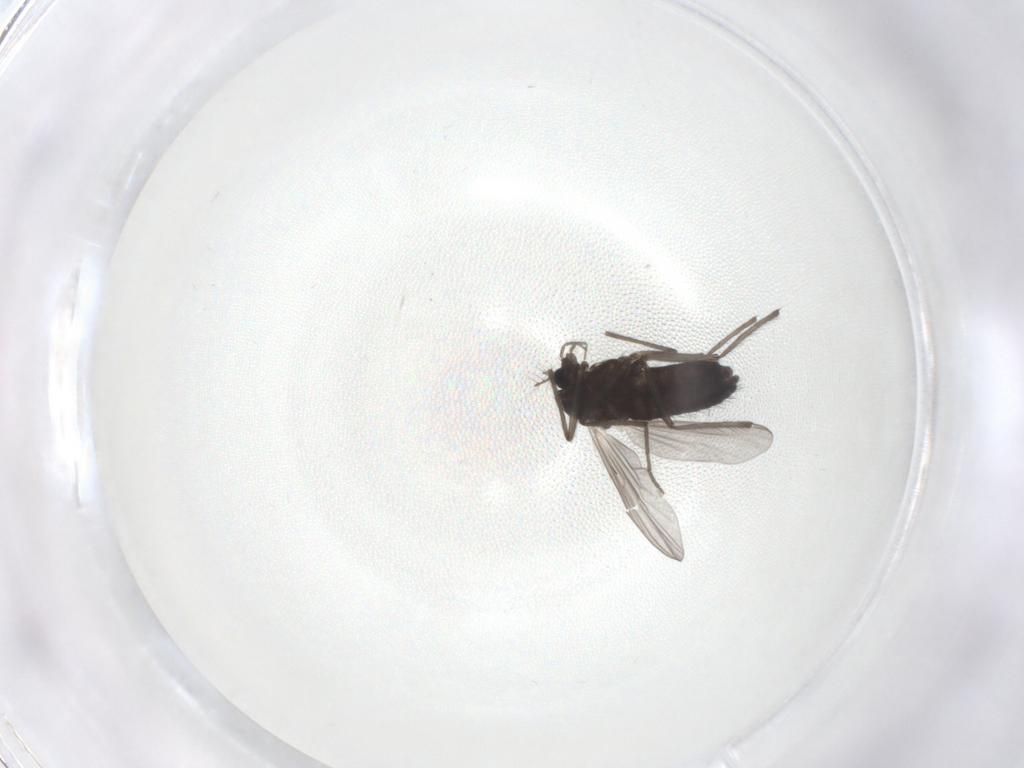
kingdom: Animalia
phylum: Arthropoda
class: Insecta
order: Diptera
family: Chironomidae
